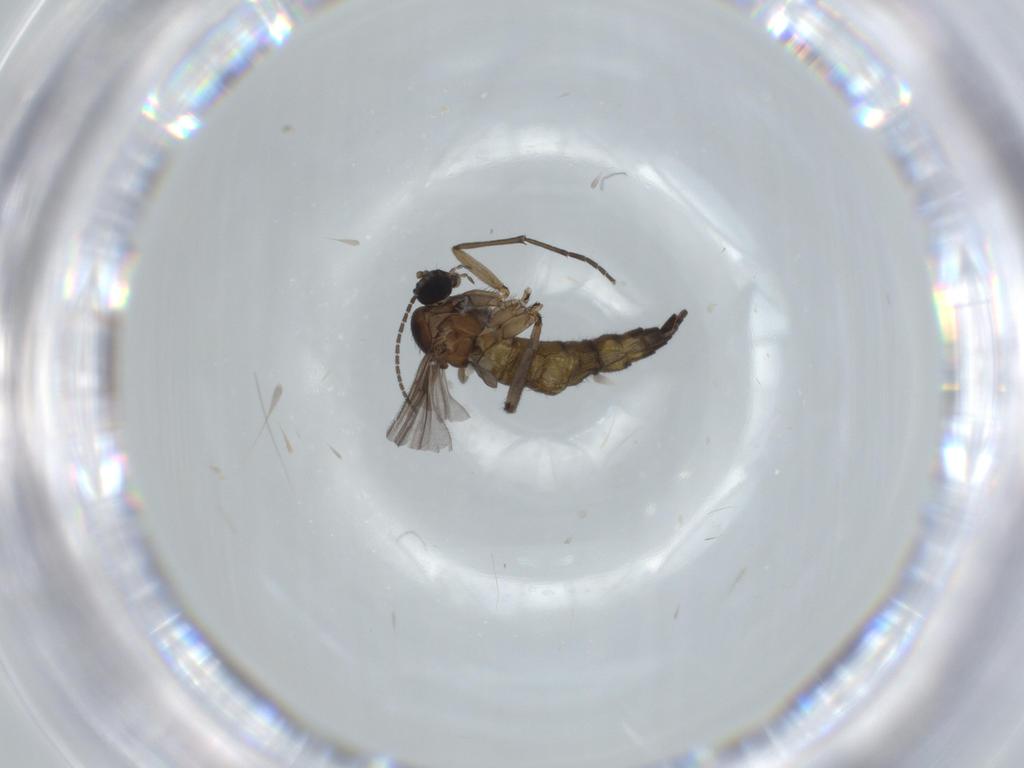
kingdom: Animalia
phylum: Arthropoda
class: Insecta
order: Diptera
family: Sciaridae
